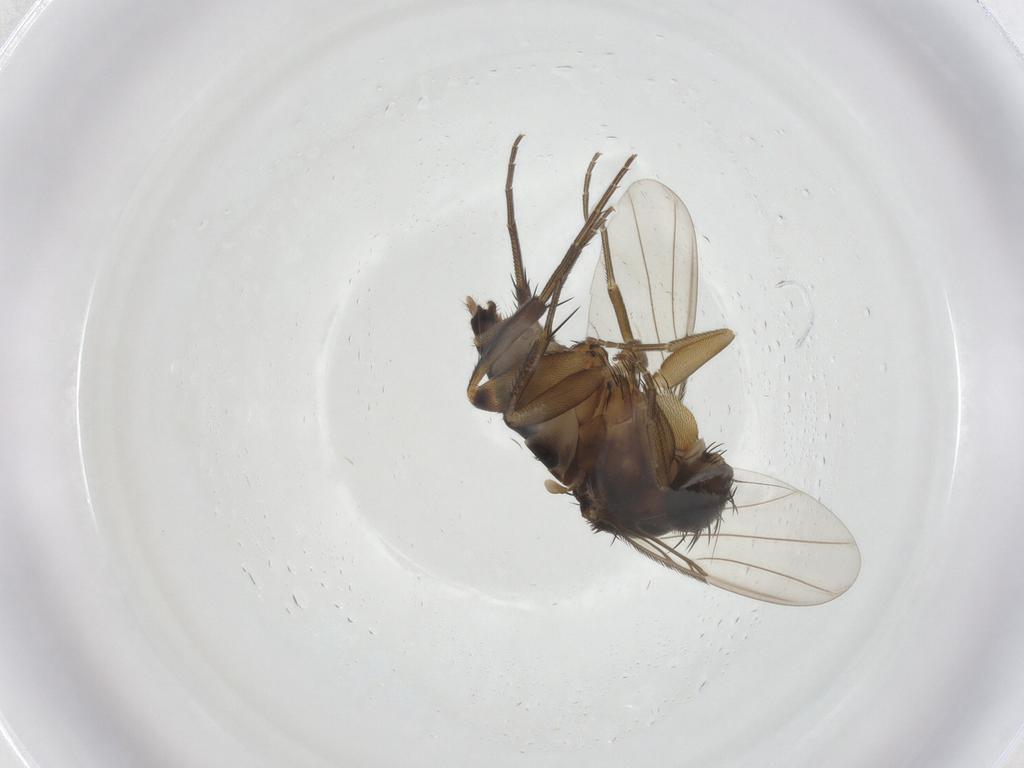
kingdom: Animalia
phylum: Arthropoda
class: Insecta
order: Diptera
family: Phoridae
